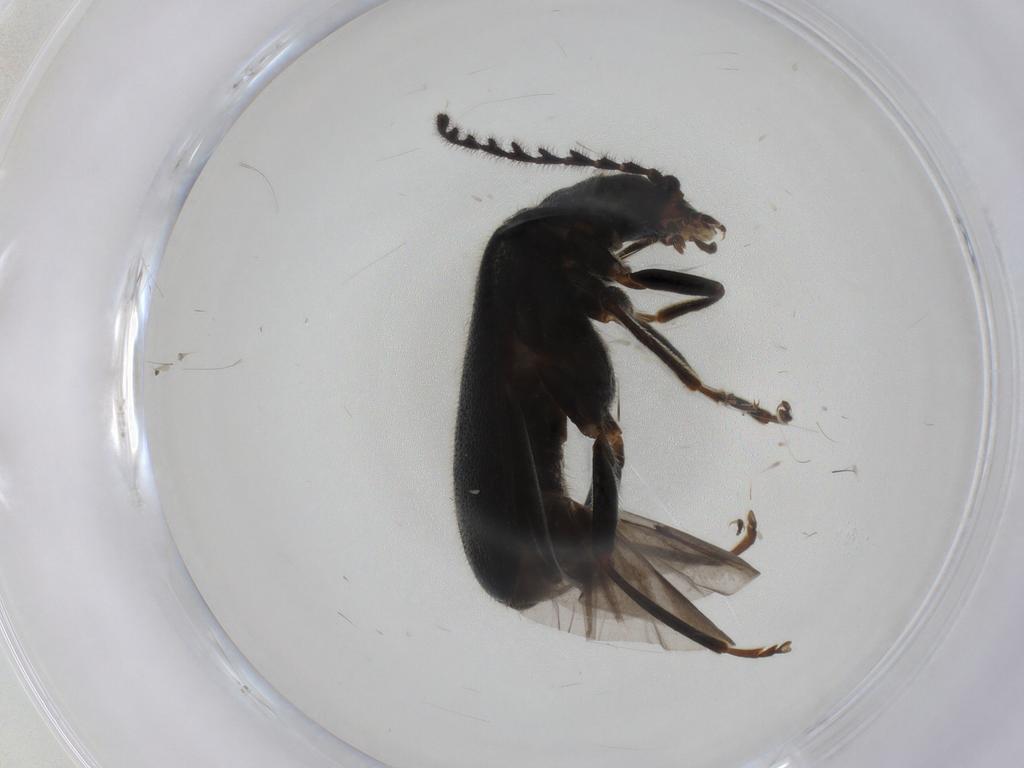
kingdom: Animalia
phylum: Arthropoda
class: Insecta
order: Coleoptera
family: Melyridae
